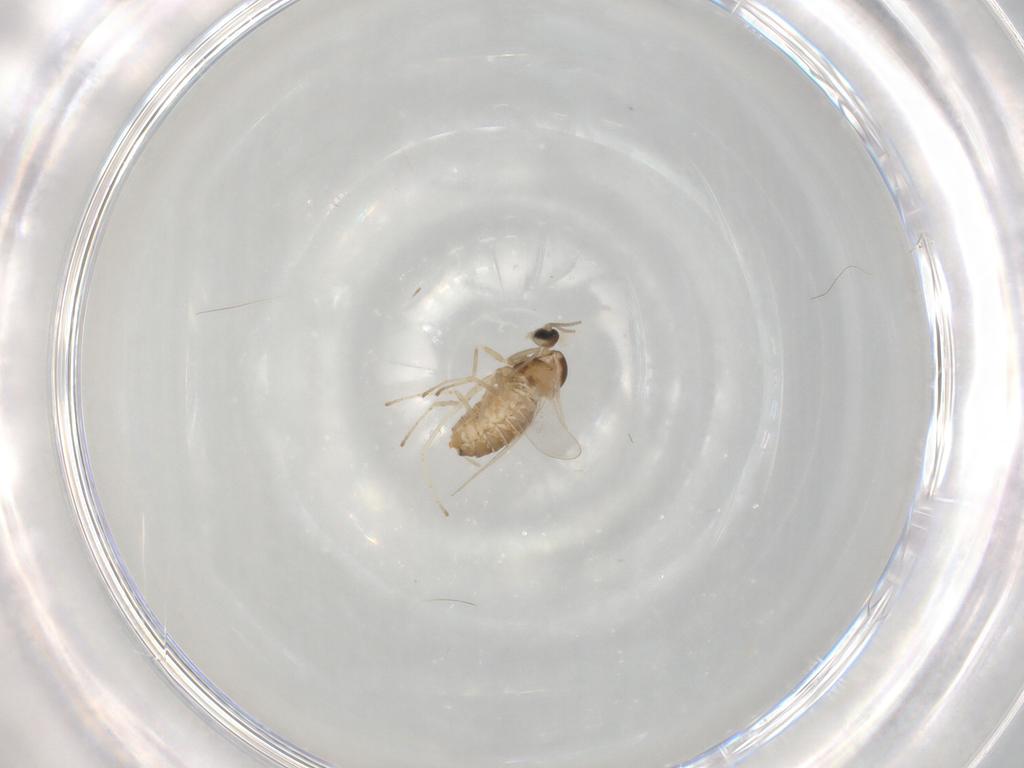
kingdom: Animalia
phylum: Arthropoda
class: Insecta
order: Diptera
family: Cecidomyiidae
